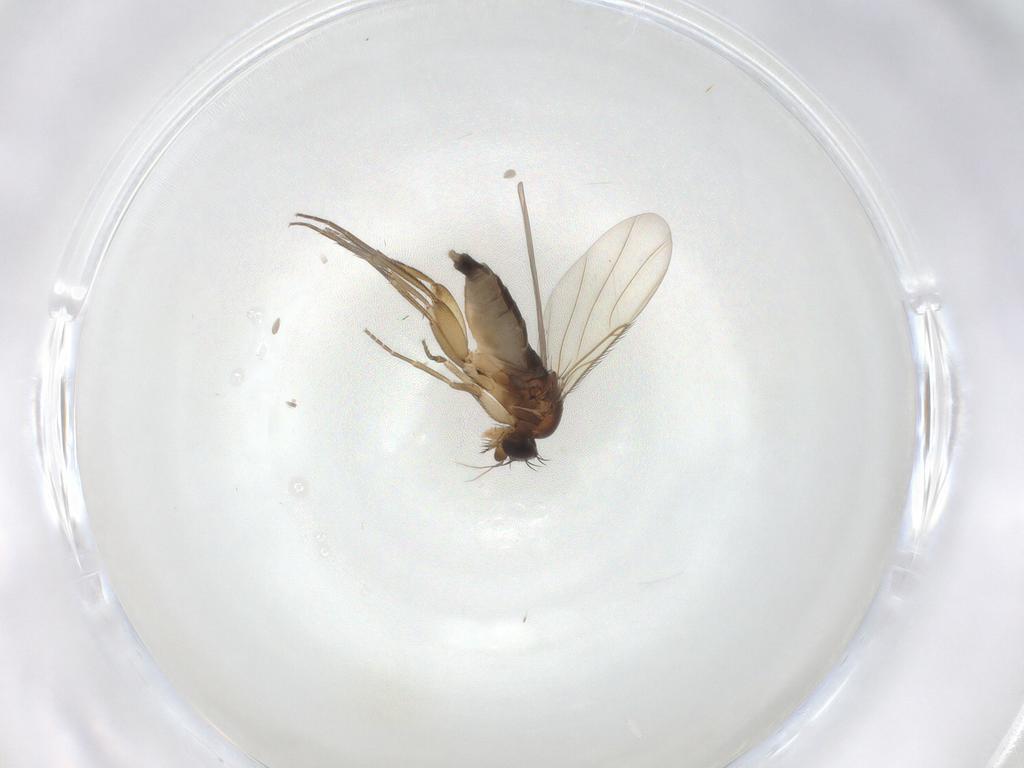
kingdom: Animalia
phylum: Arthropoda
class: Insecta
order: Diptera
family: Phoridae
